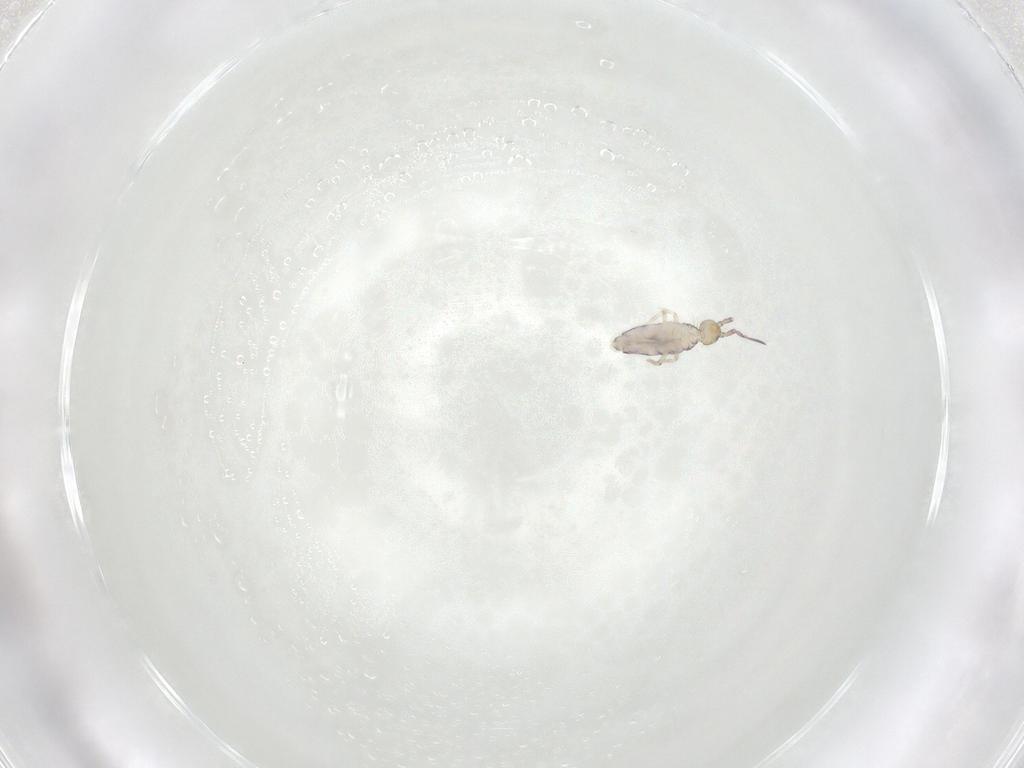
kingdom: Animalia
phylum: Arthropoda
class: Collembola
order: Entomobryomorpha
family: Entomobryidae
